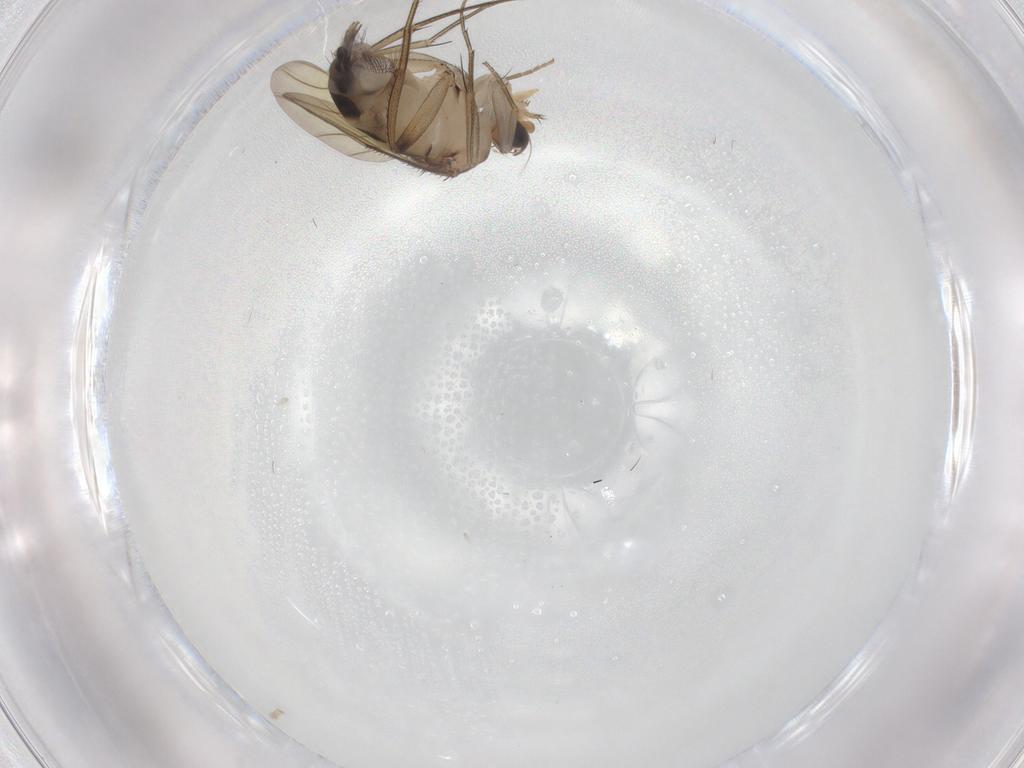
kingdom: Animalia
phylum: Arthropoda
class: Insecta
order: Diptera
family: Phoridae
